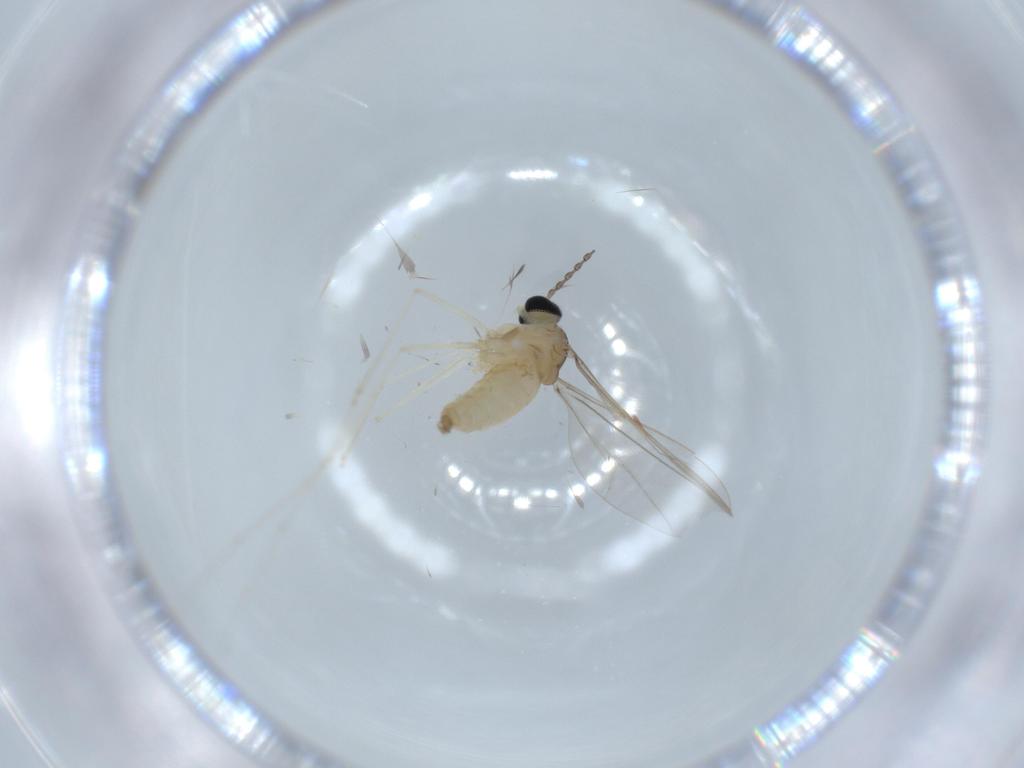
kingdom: Animalia
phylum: Arthropoda
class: Insecta
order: Diptera
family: Cecidomyiidae
